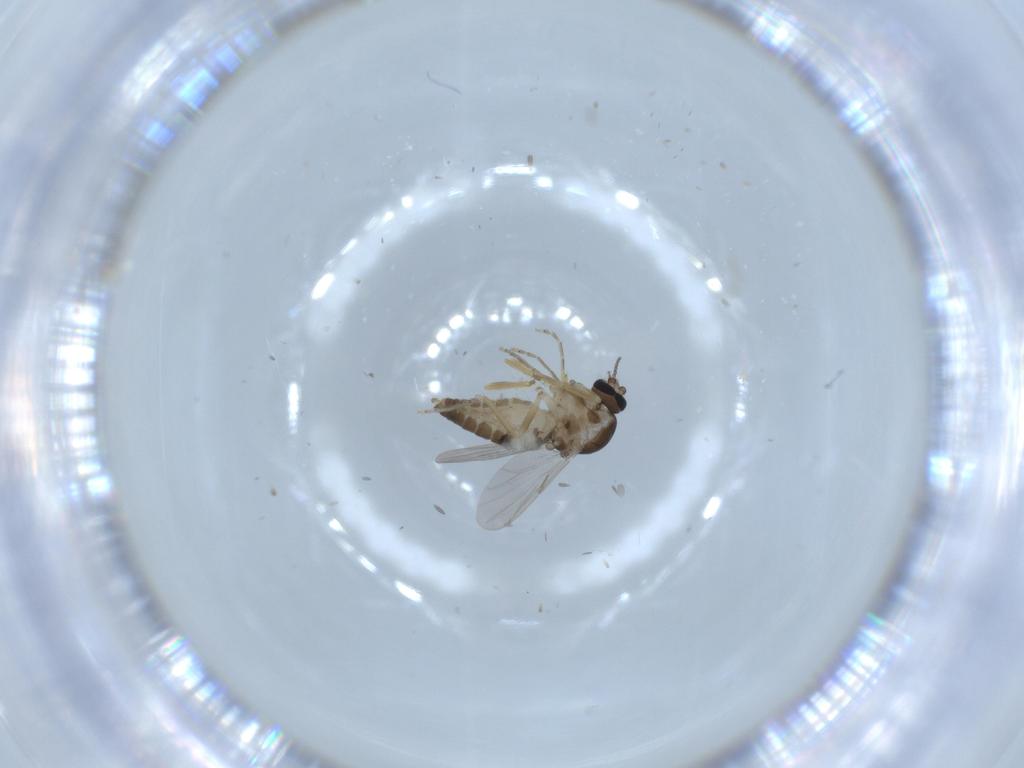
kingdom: Animalia
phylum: Arthropoda
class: Insecta
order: Diptera
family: Ceratopogonidae
